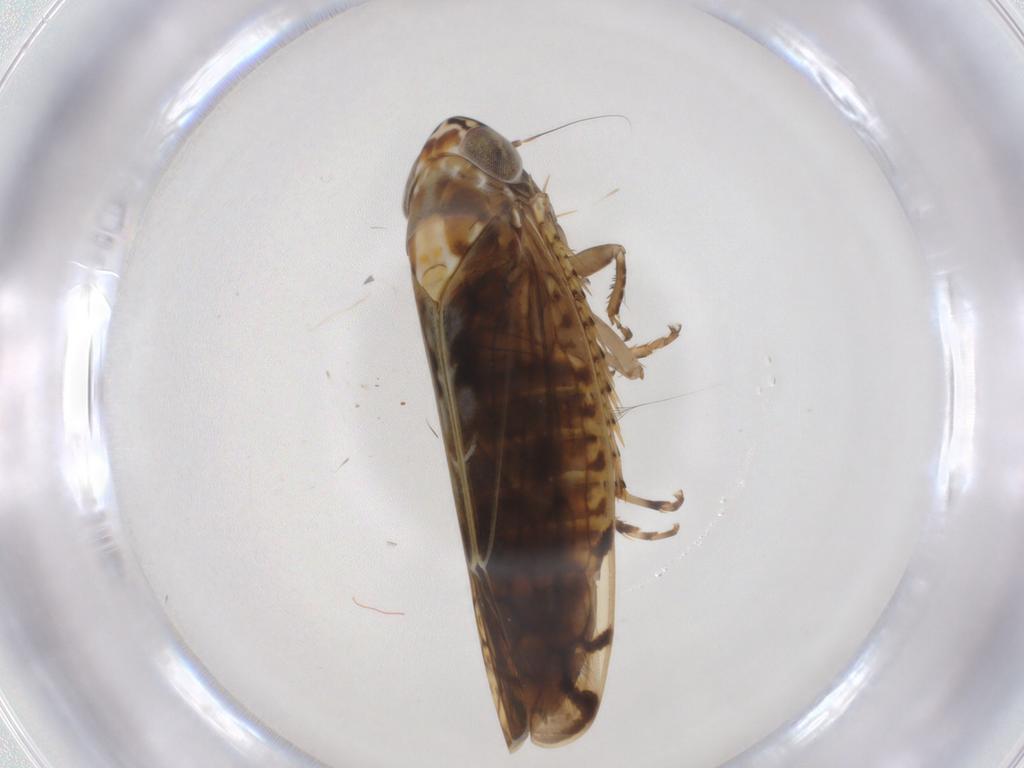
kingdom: Animalia
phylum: Arthropoda
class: Insecta
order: Hemiptera
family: Cicadellidae
